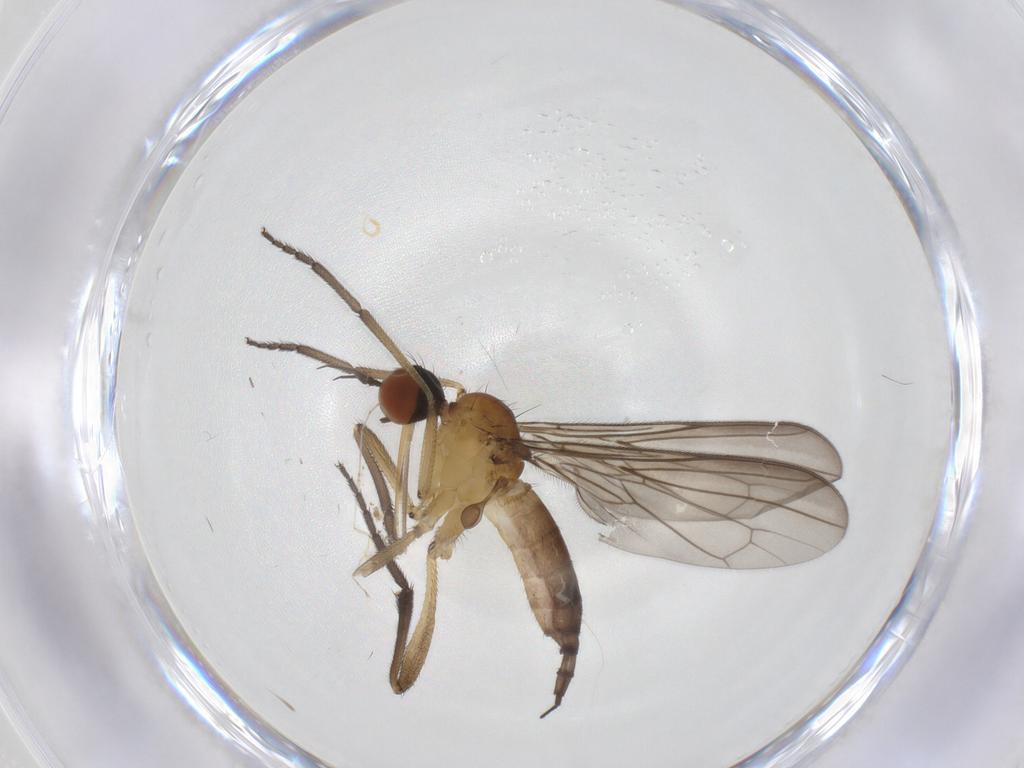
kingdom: Animalia
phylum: Arthropoda
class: Insecta
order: Diptera
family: Empididae
